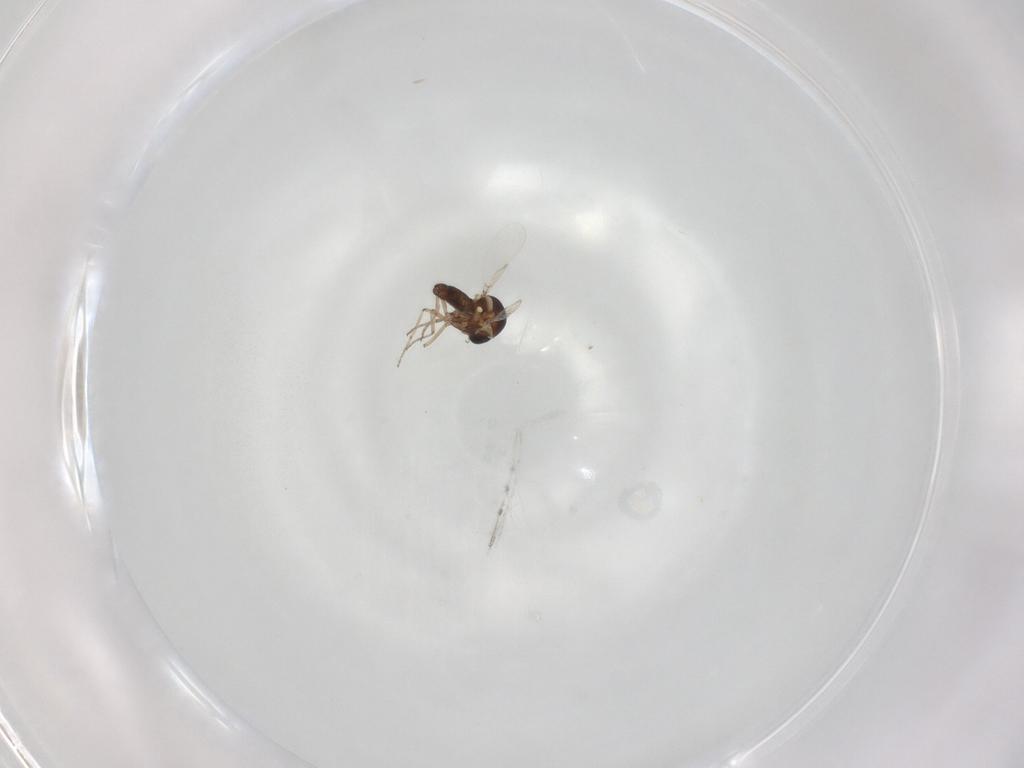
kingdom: Animalia
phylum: Arthropoda
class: Insecta
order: Diptera
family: Ceratopogonidae
